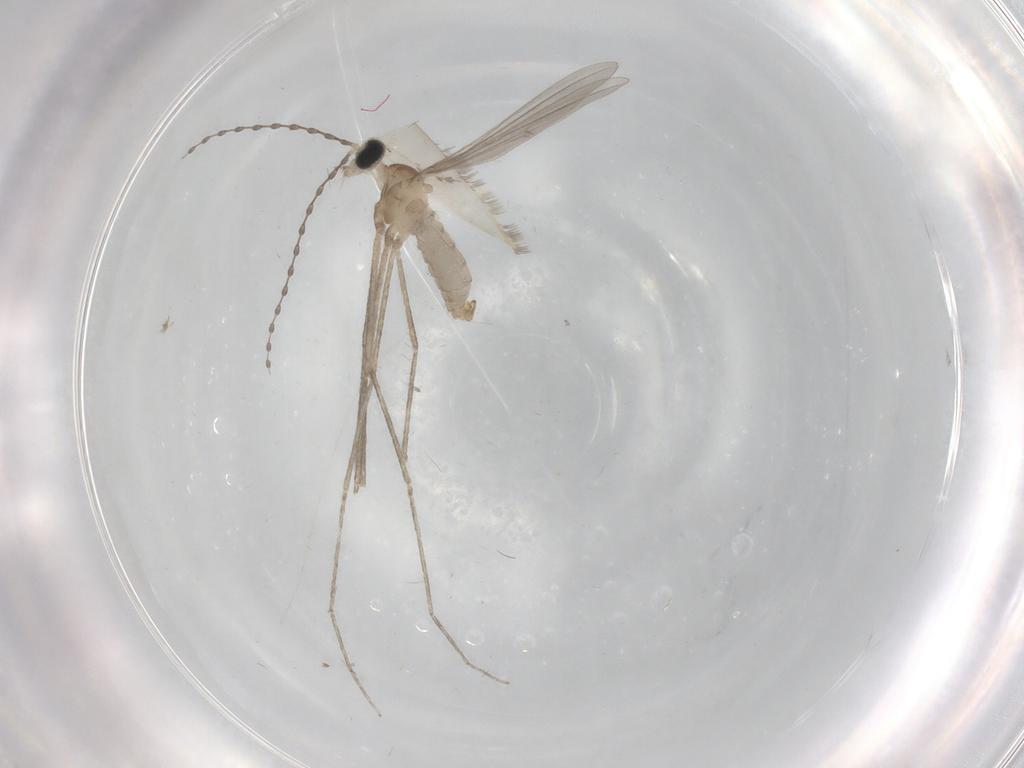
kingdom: Animalia
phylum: Arthropoda
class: Insecta
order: Diptera
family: Cecidomyiidae
